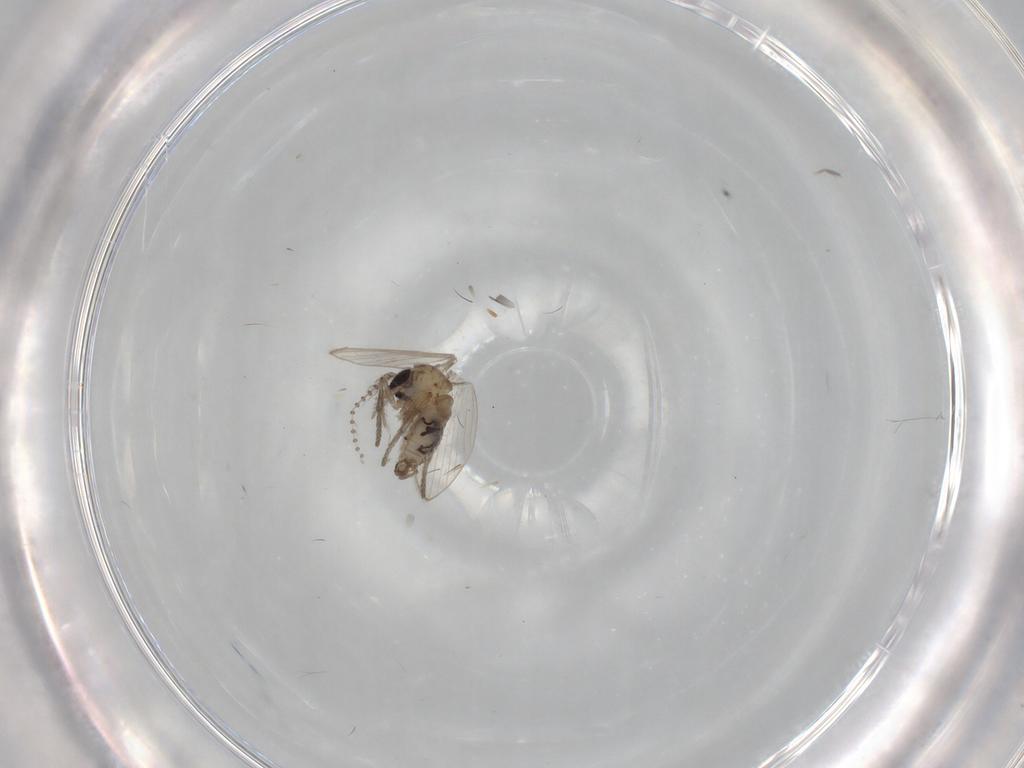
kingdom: Animalia
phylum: Arthropoda
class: Insecta
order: Diptera
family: Psychodidae
